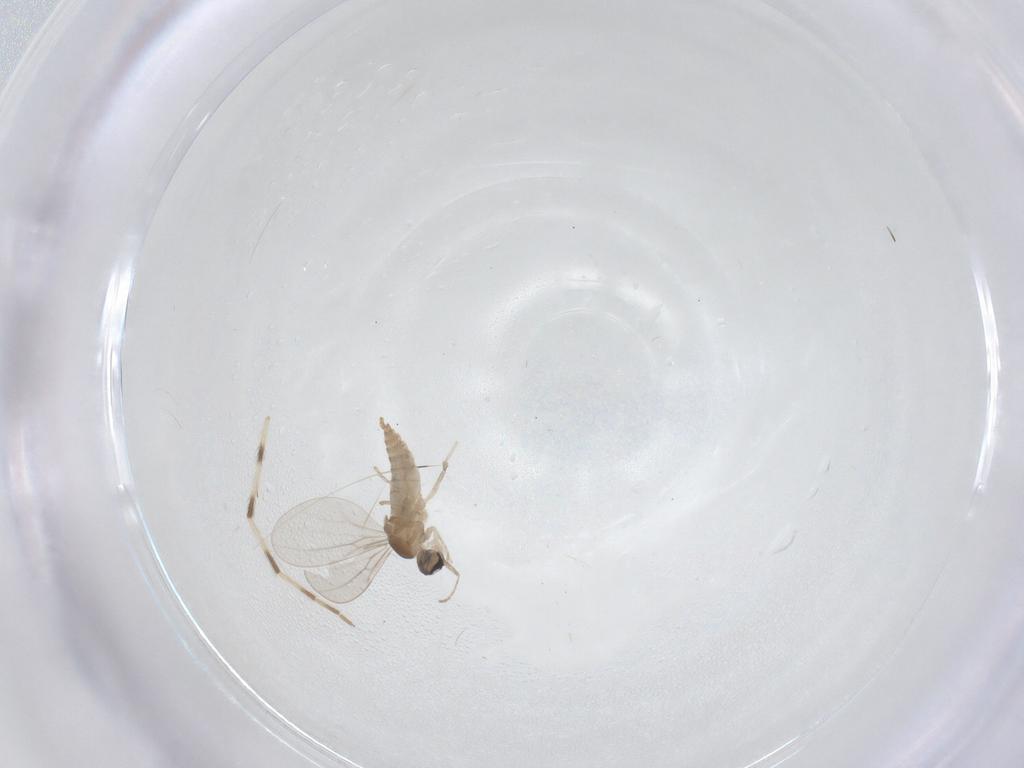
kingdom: Animalia
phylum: Arthropoda
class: Insecta
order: Diptera
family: Cecidomyiidae
